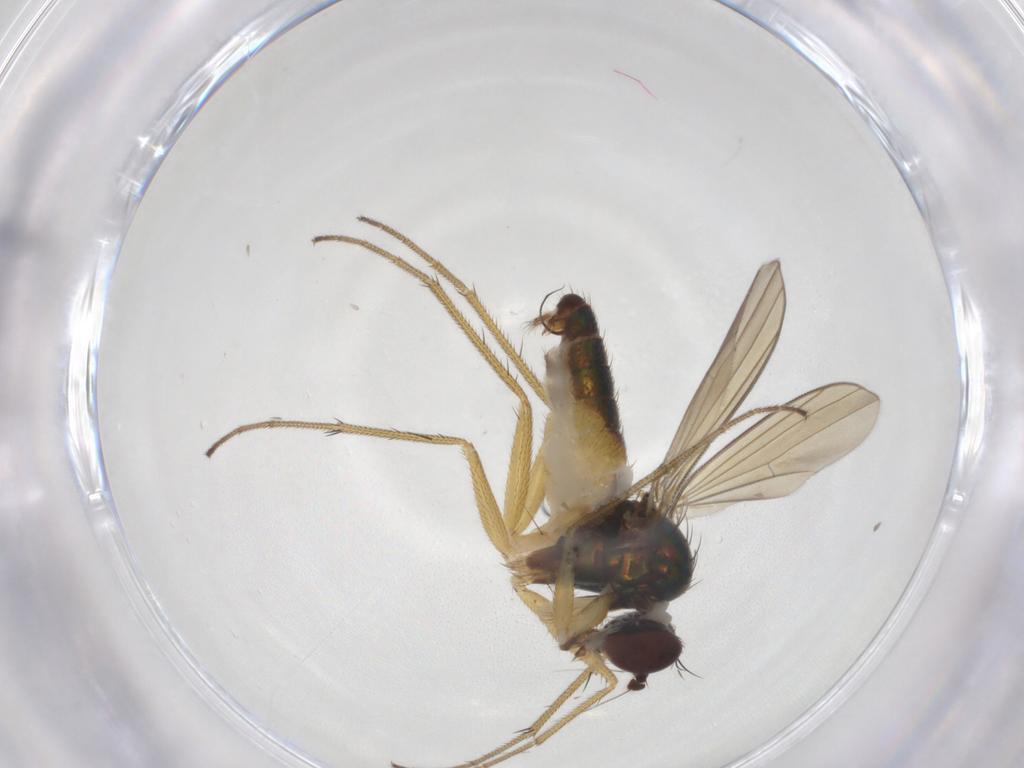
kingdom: Animalia
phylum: Arthropoda
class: Insecta
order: Diptera
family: Dolichopodidae
